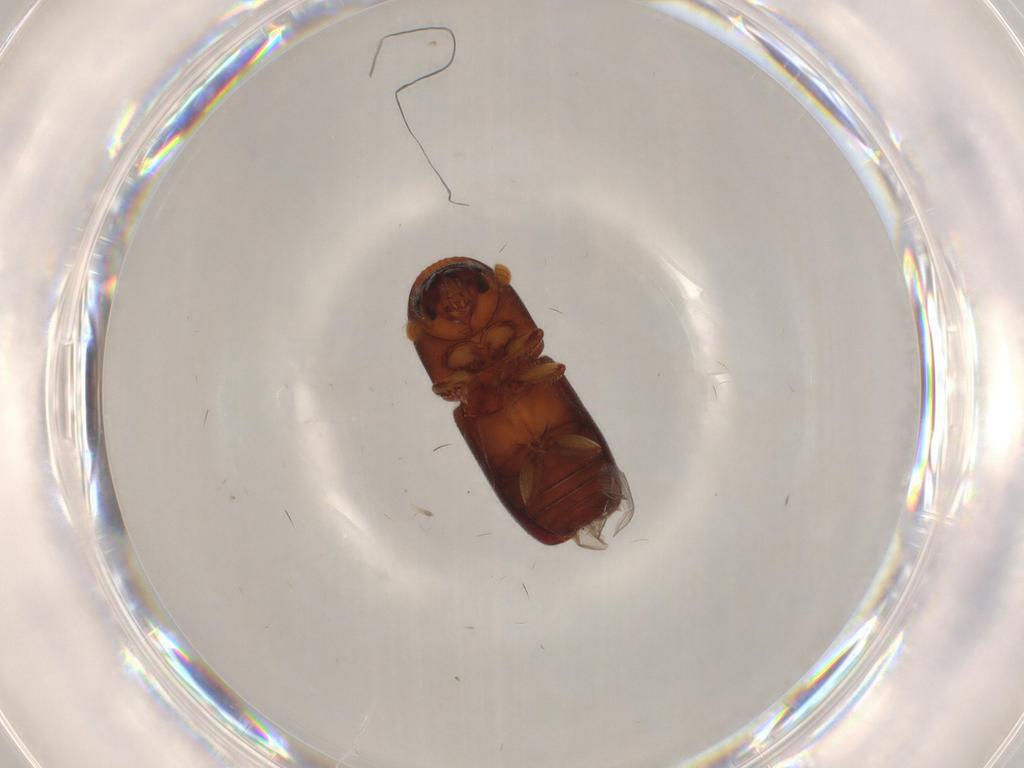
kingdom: Animalia
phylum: Arthropoda
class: Insecta
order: Coleoptera
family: Curculionidae
